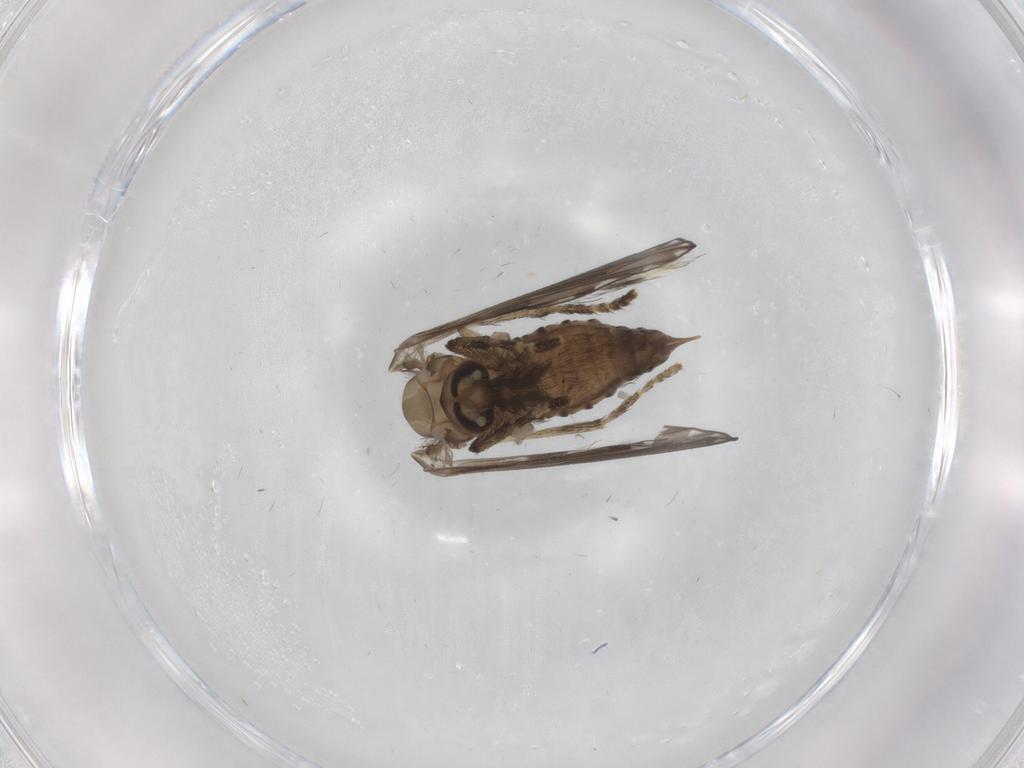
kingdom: Animalia
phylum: Arthropoda
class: Insecta
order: Diptera
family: Psychodidae
